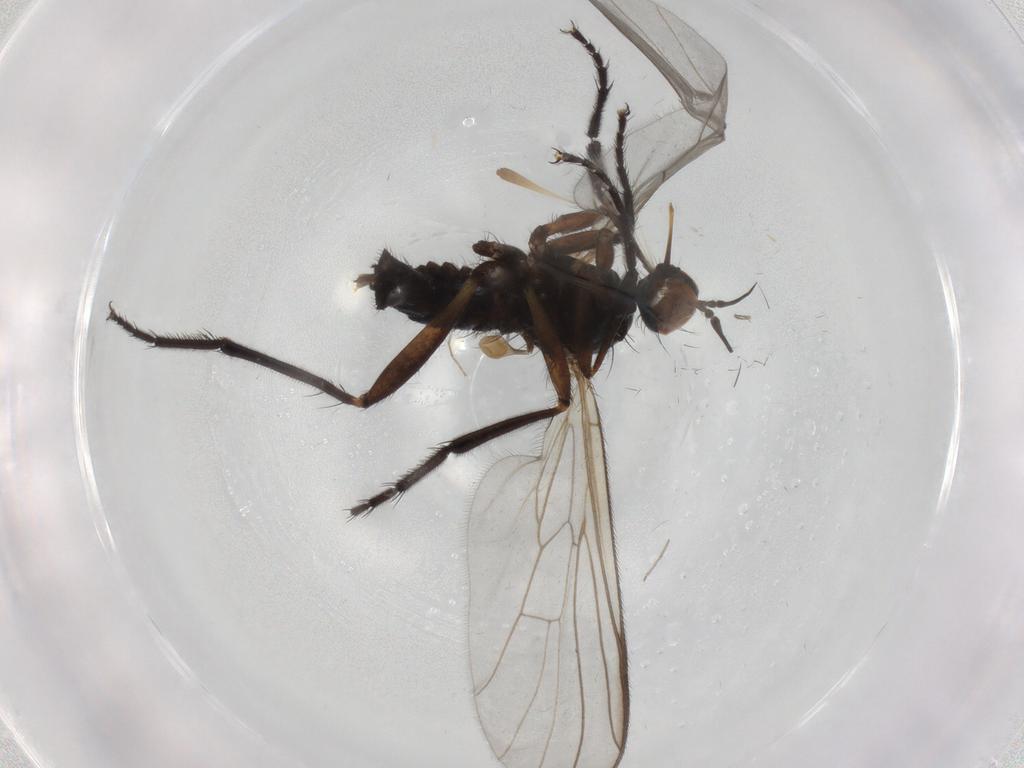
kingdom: Animalia
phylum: Arthropoda
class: Insecta
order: Diptera
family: Empididae
